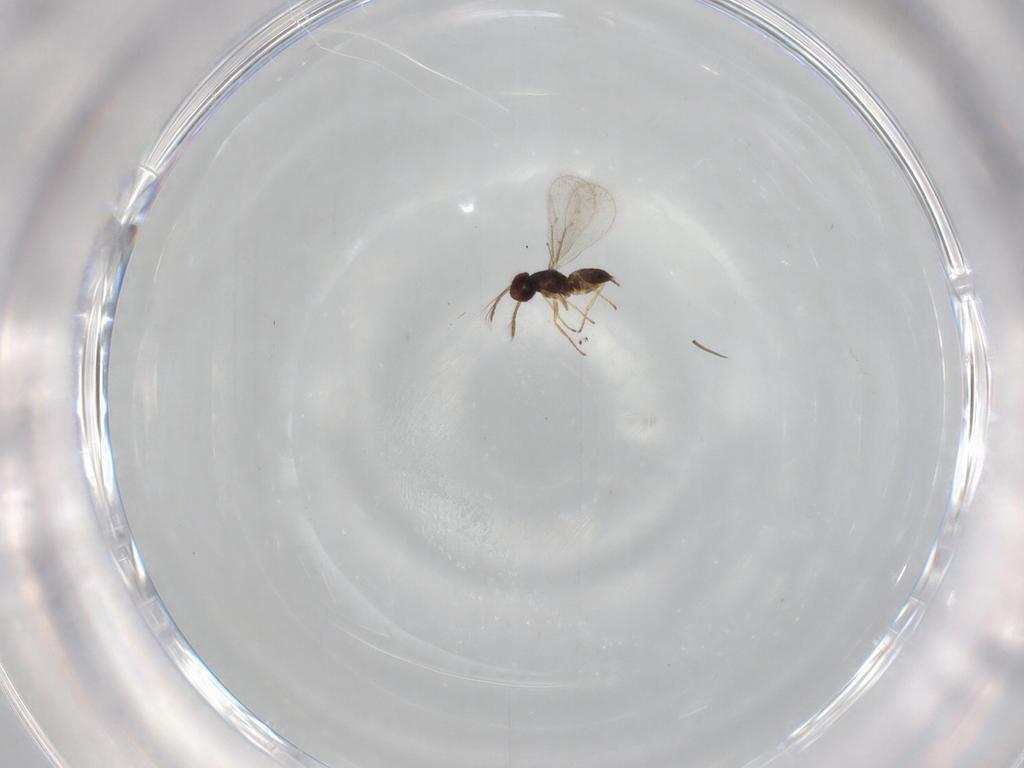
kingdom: Animalia
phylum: Arthropoda
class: Insecta
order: Hymenoptera
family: Eulophidae
